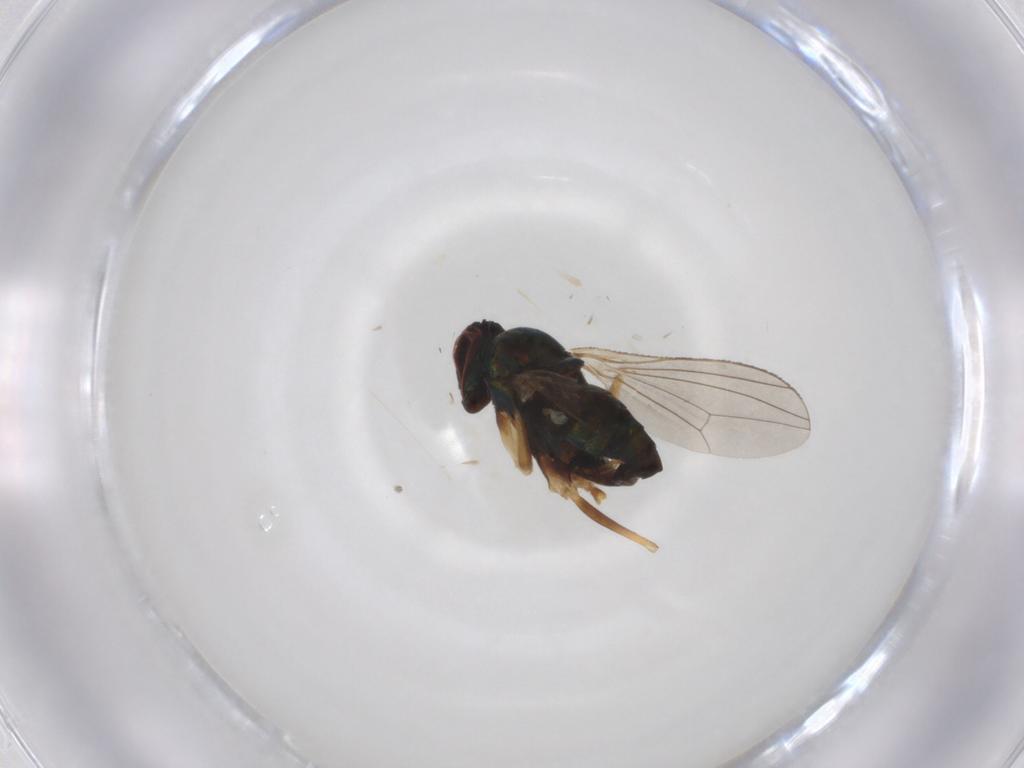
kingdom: Animalia
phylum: Arthropoda
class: Insecta
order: Diptera
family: Dolichopodidae
